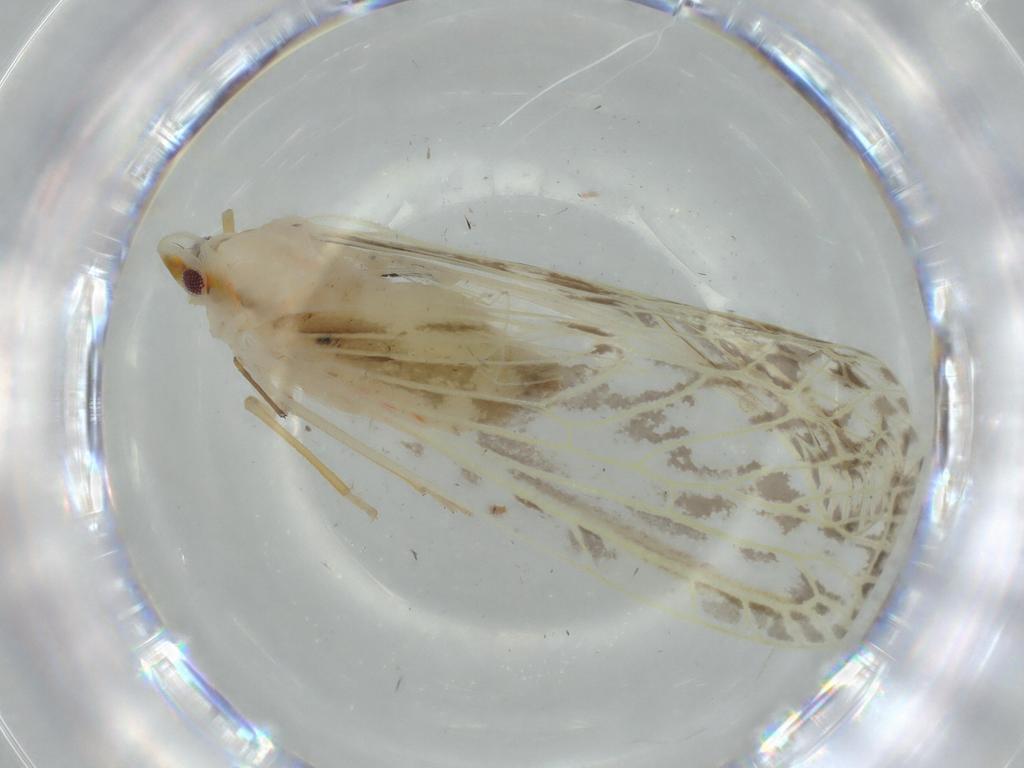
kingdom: Animalia
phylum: Arthropoda
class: Insecta
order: Hemiptera
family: Derbidae
